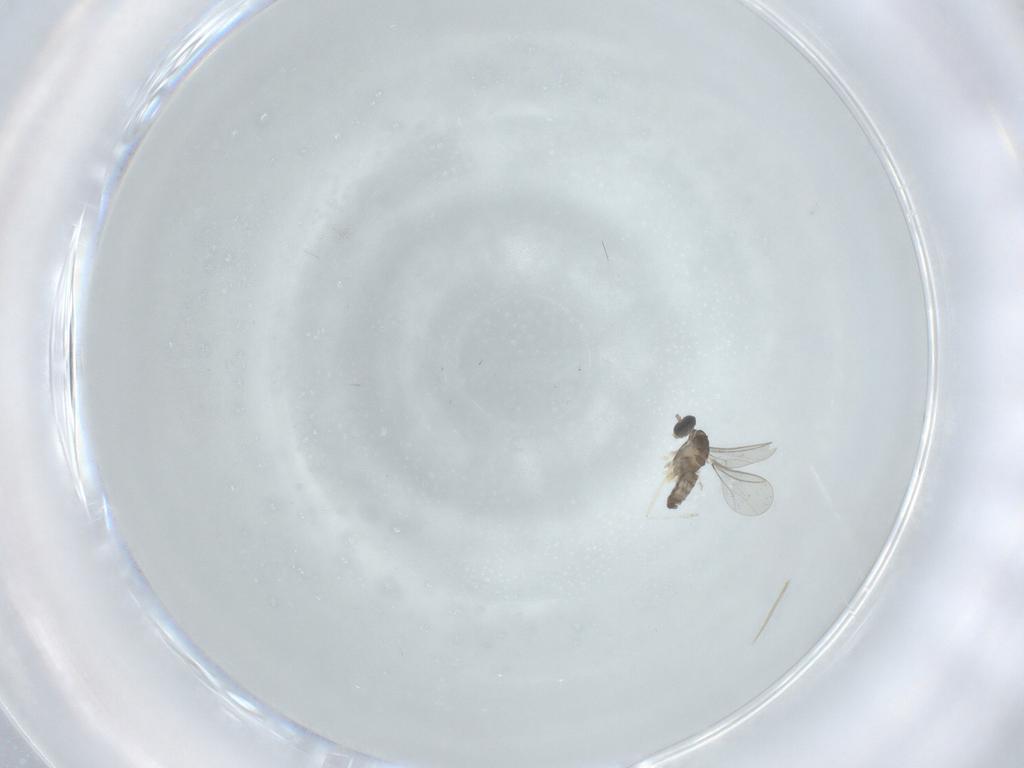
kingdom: Animalia
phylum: Arthropoda
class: Insecta
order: Diptera
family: Cecidomyiidae
